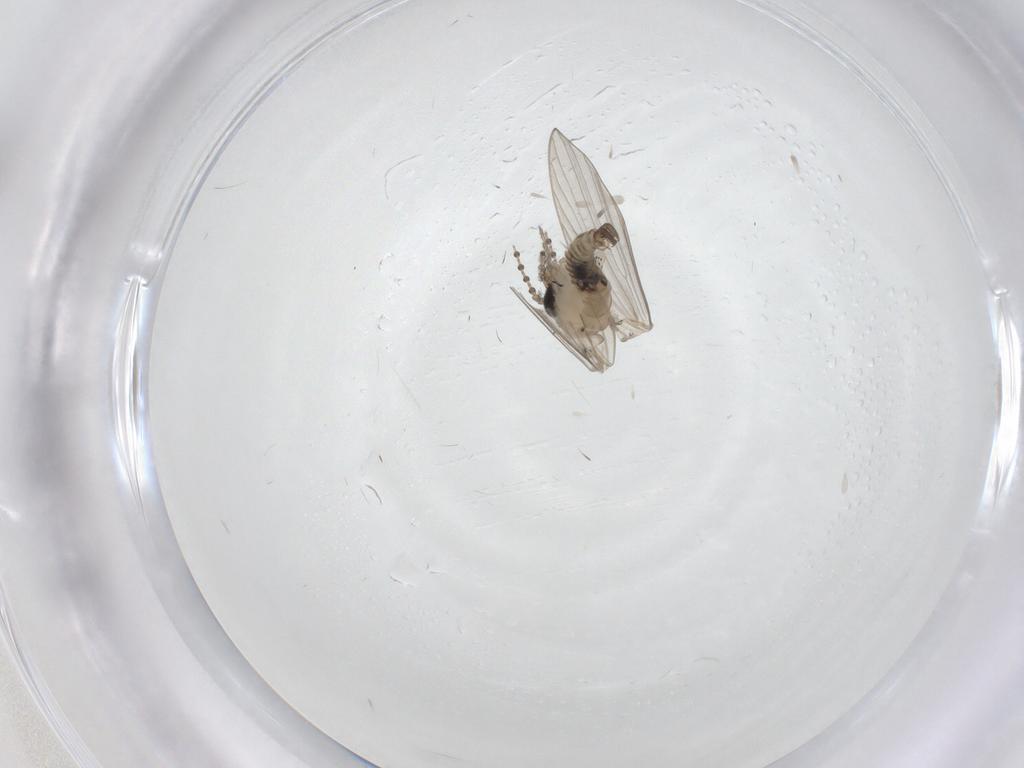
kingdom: Animalia
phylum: Arthropoda
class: Insecta
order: Diptera
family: Psychodidae
